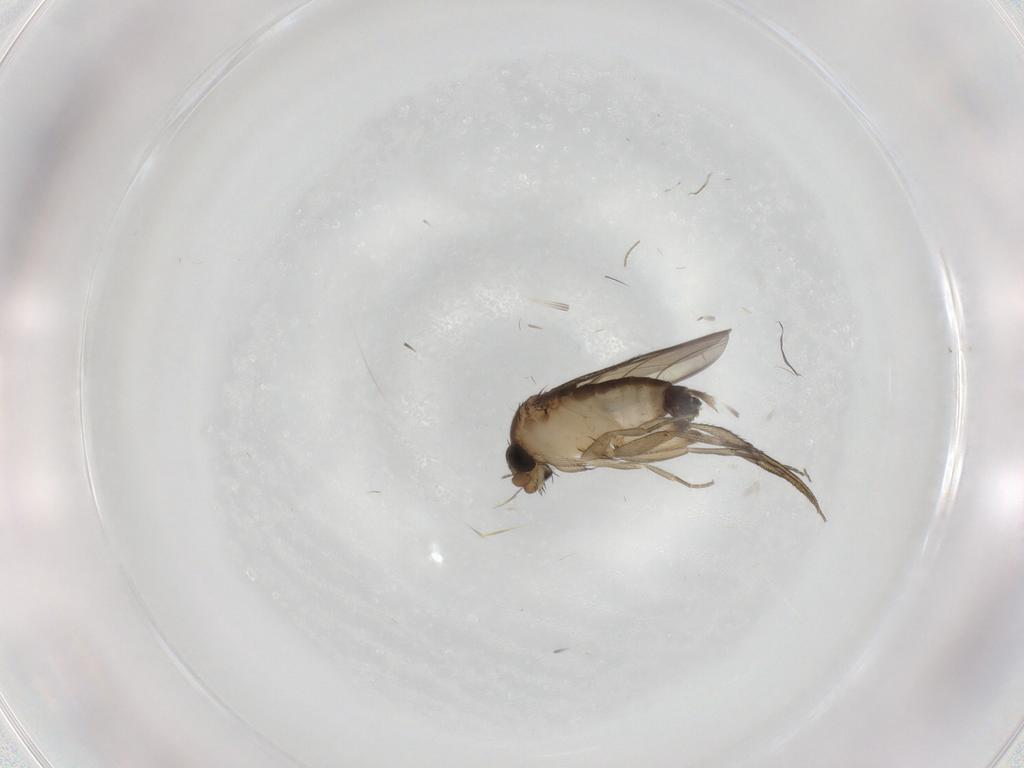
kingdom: Animalia
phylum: Arthropoda
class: Insecta
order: Diptera
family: Phoridae
